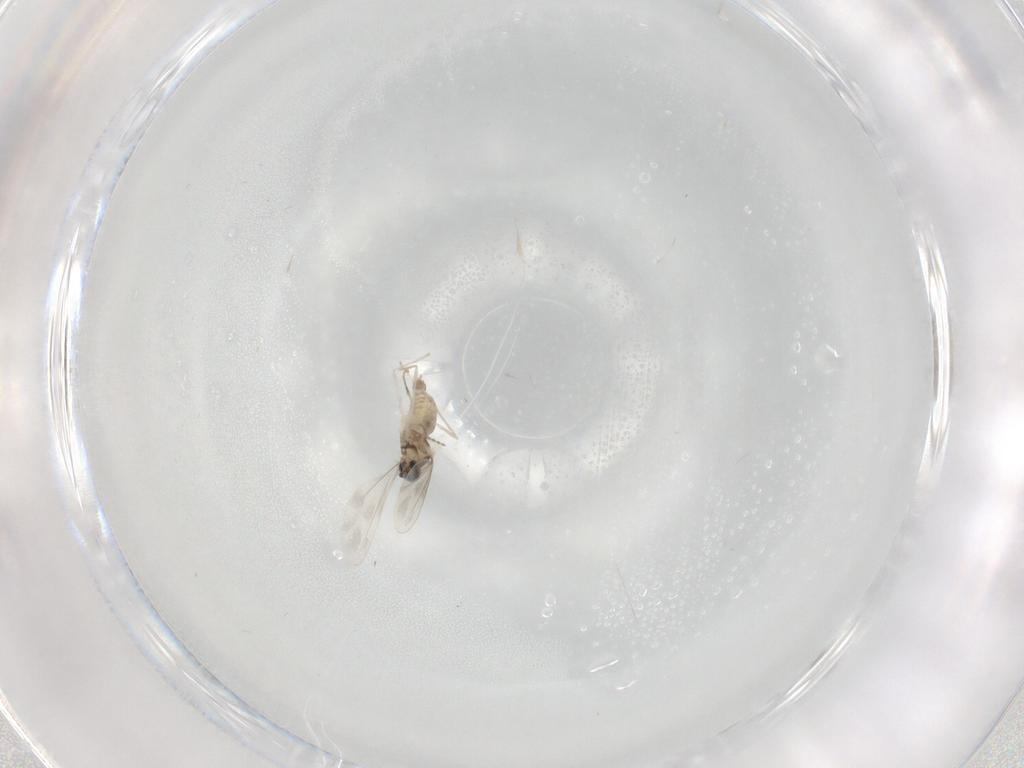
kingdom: Animalia
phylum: Arthropoda
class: Insecta
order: Diptera
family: Cecidomyiidae
